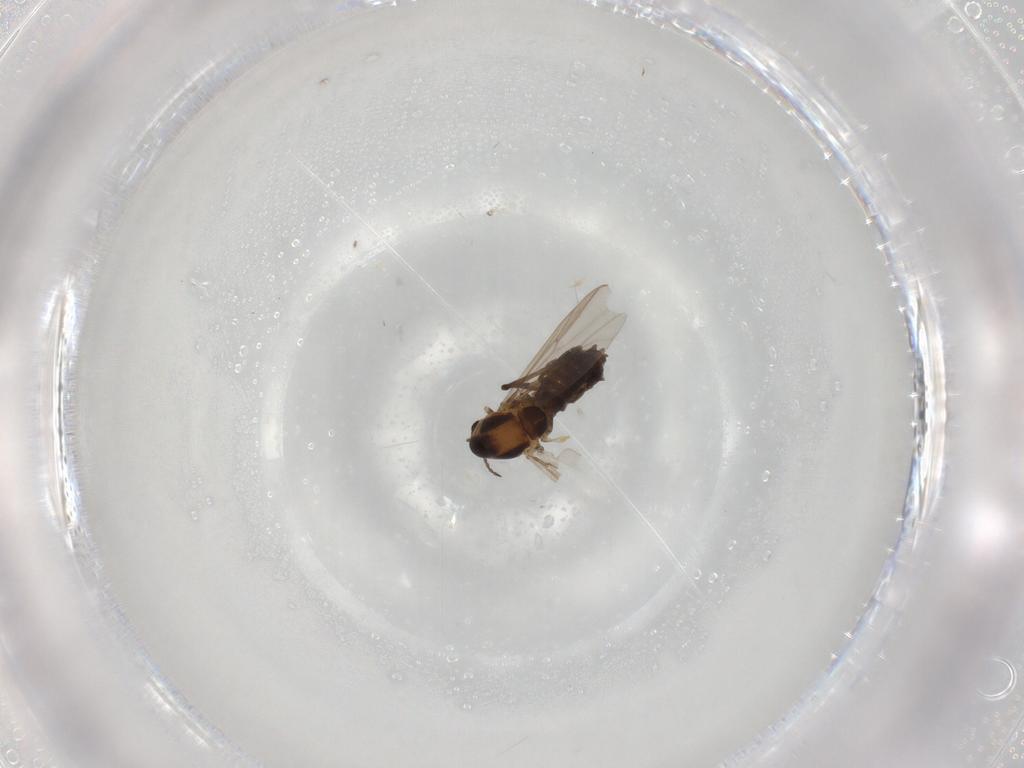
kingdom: Animalia
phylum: Arthropoda
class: Insecta
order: Diptera
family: Chironomidae
